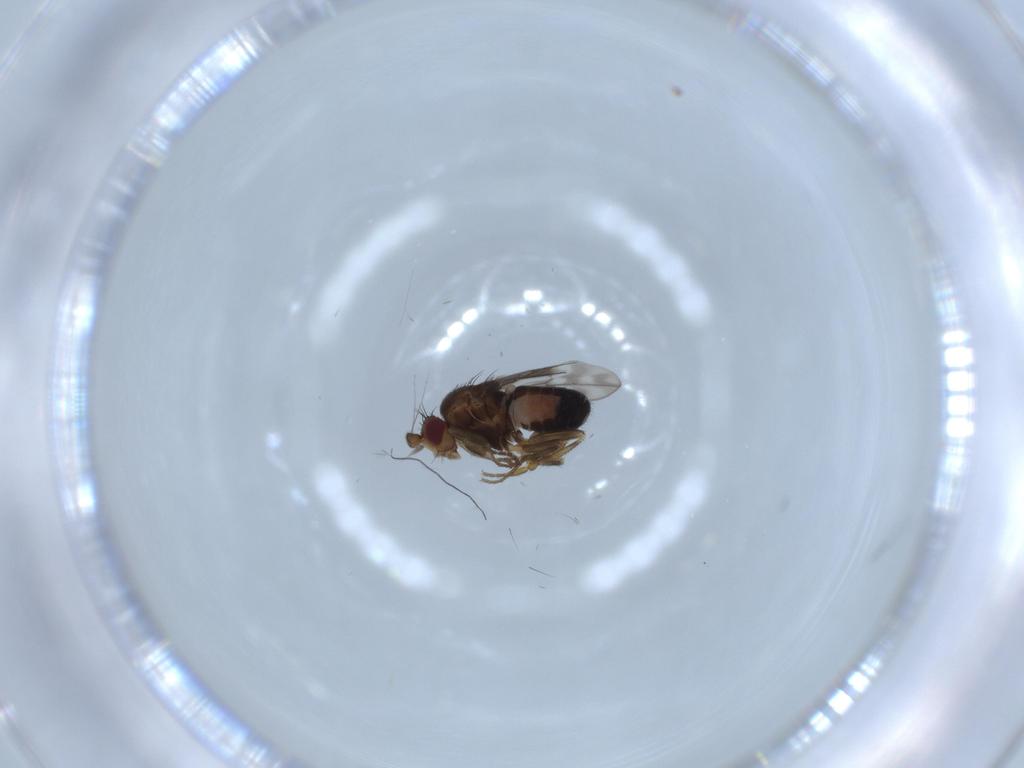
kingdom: Animalia
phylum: Arthropoda
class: Insecta
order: Diptera
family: Sphaeroceridae
